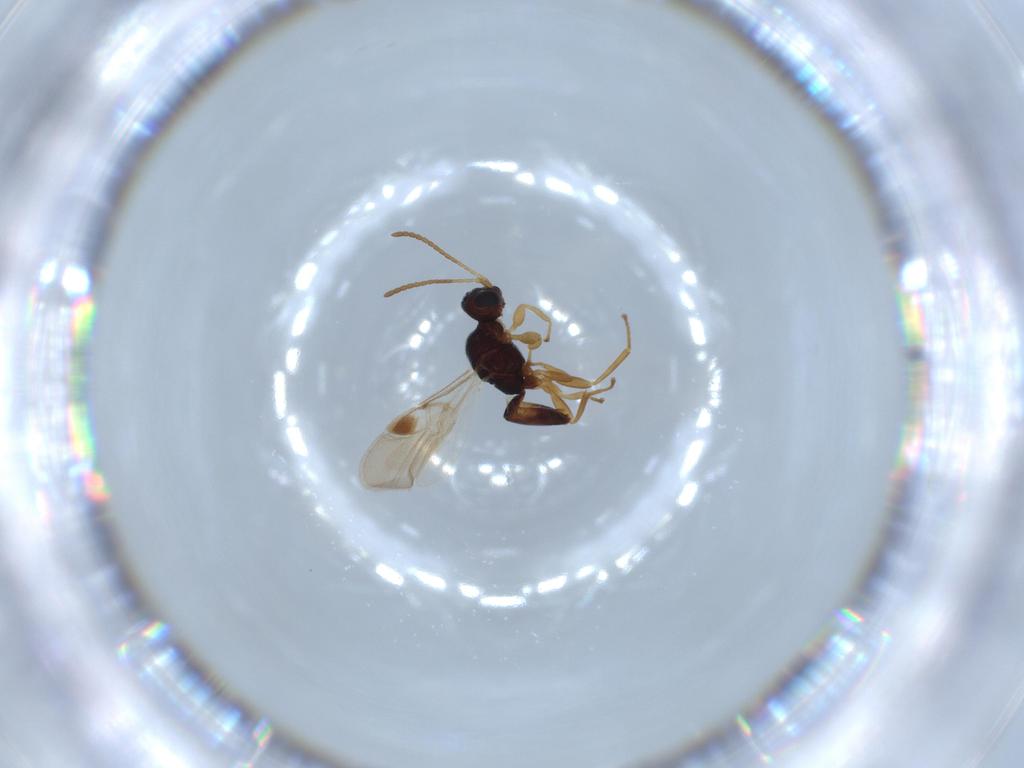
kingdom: Animalia
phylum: Arthropoda
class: Insecta
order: Hymenoptera
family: Braconidae
